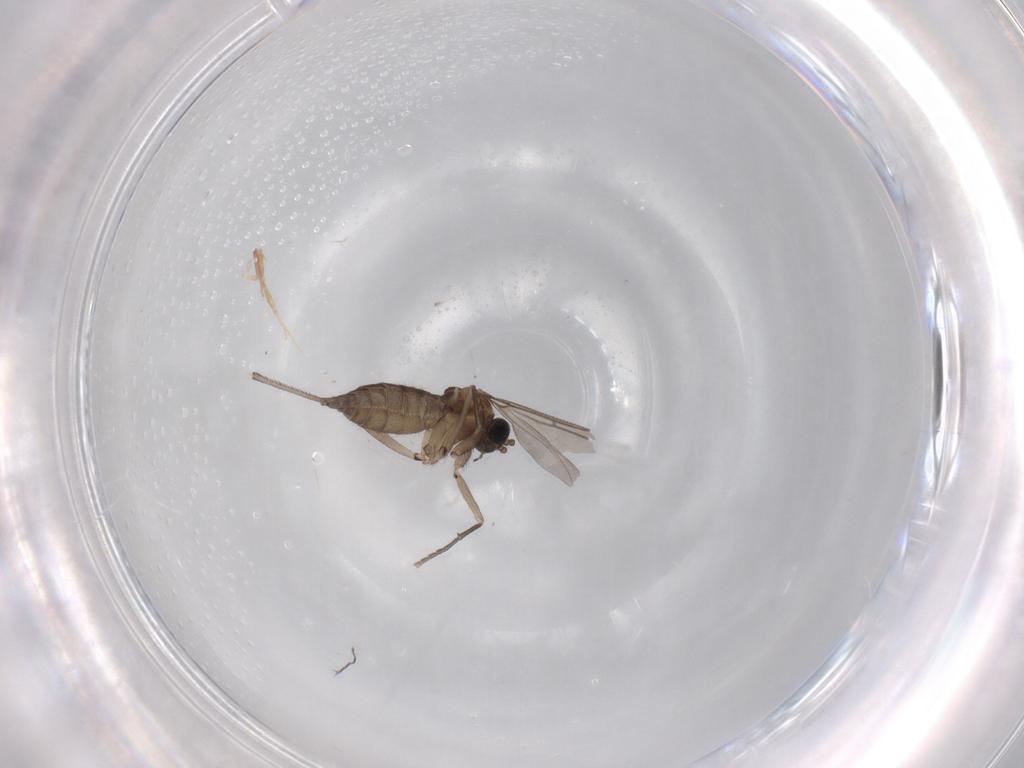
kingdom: Animalia
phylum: Arthropoda
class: Insecta
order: Diptera
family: Sciaridae
